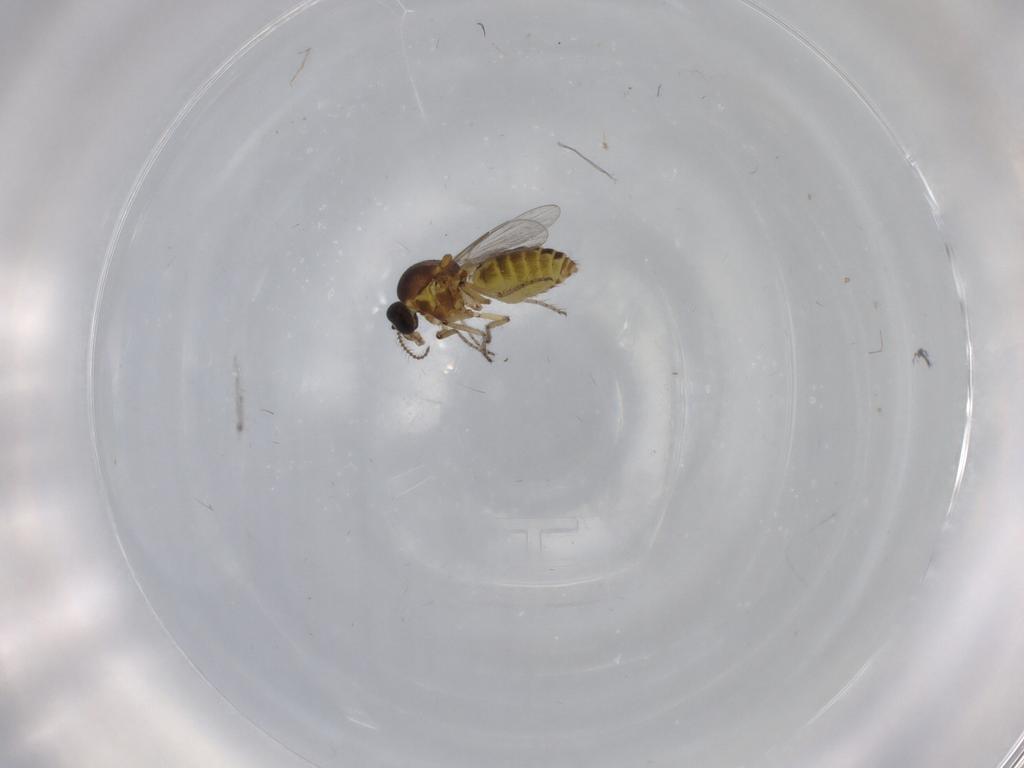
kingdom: Animalia
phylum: Arthropoda
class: Insecta
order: Diptera
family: Ceratopogonidae
